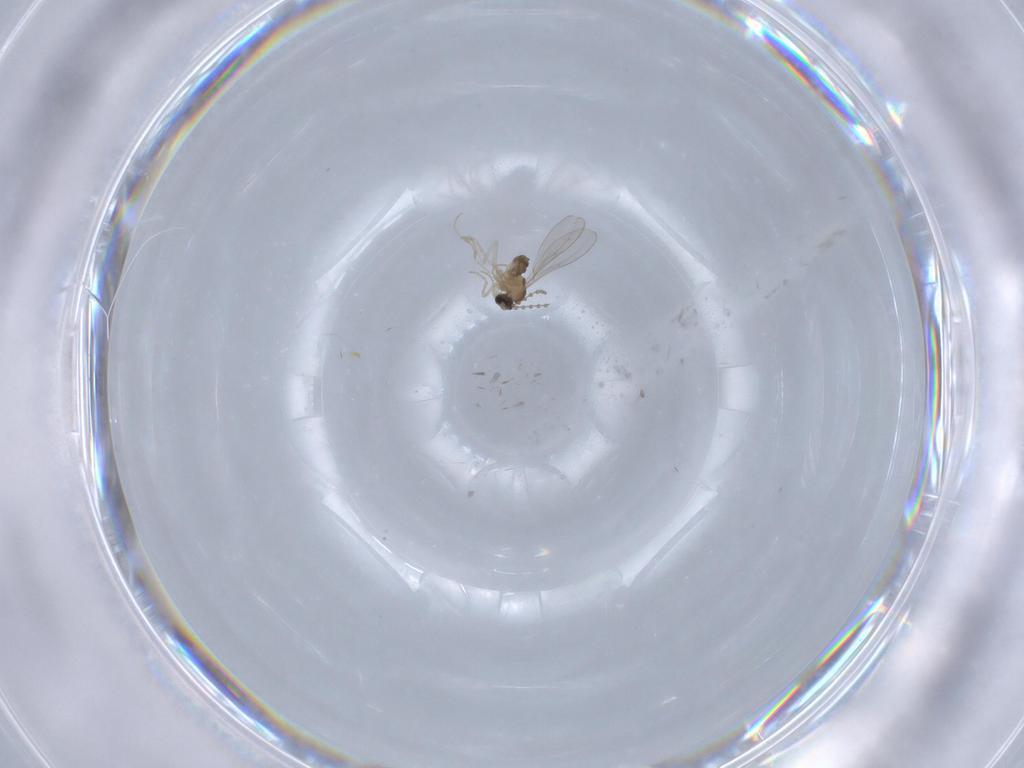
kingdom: Animalia
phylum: Arthropoda
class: Insecta
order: Diptera
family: Cecidomyiidae
